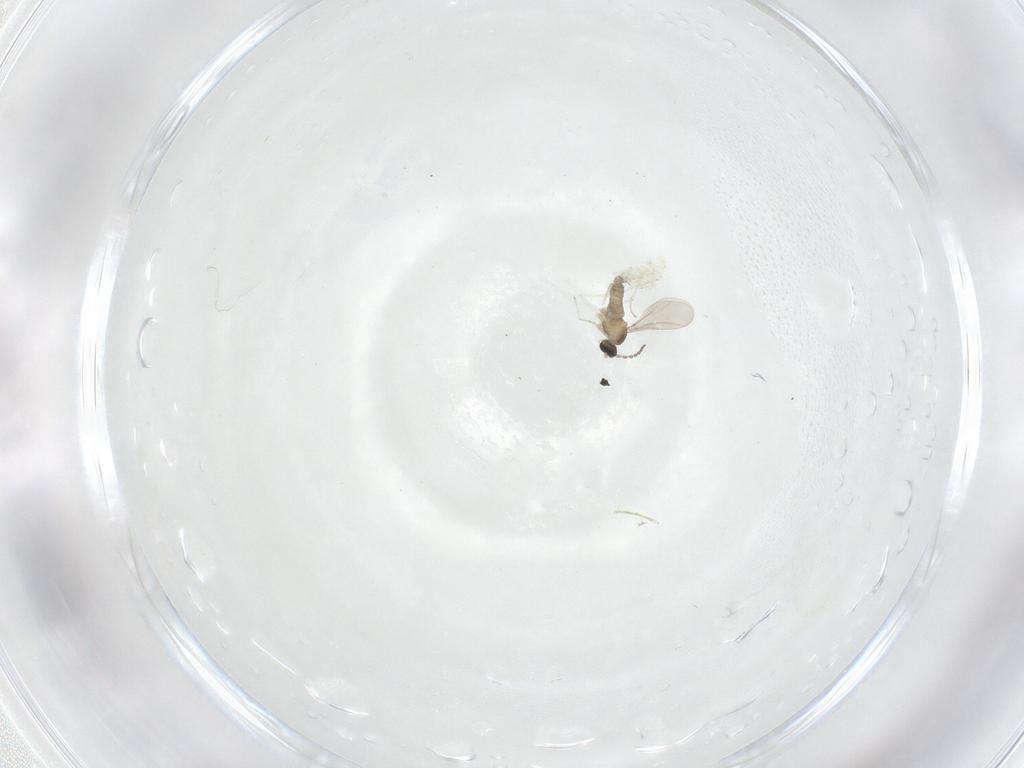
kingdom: Animalia
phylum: Arthropoda
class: Insecta
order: Diptera
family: Cecidomyiidae
